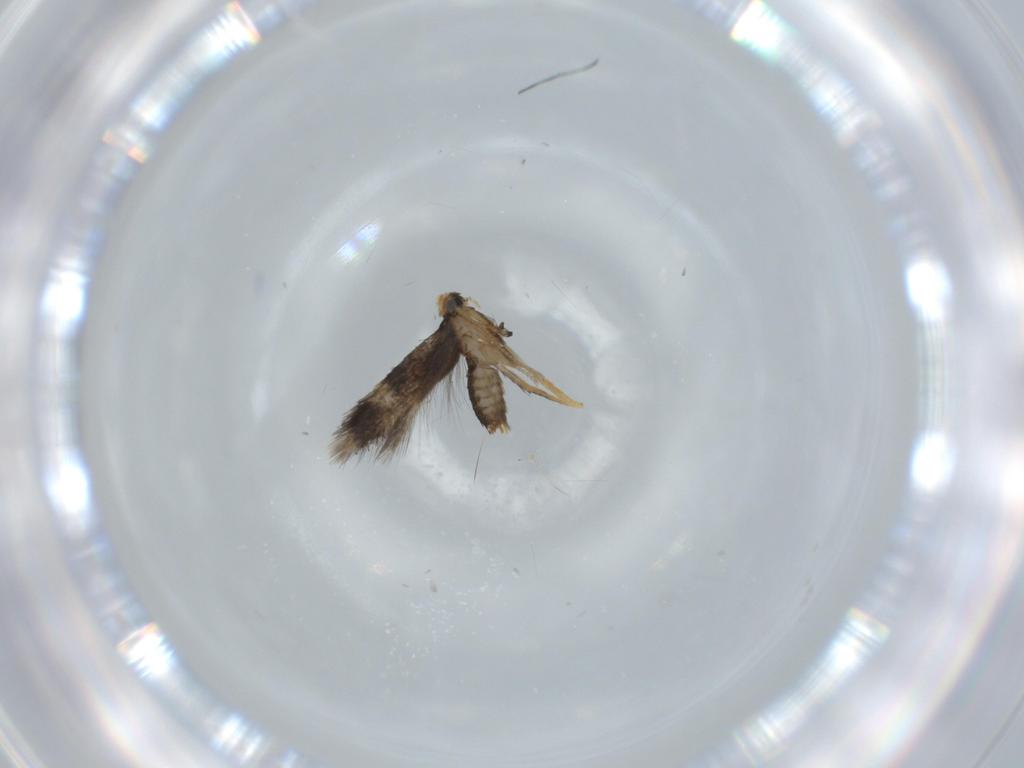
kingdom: Animalia
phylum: Arthropoda
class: Insecta
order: Lepidoptera
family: Nepticulidae
